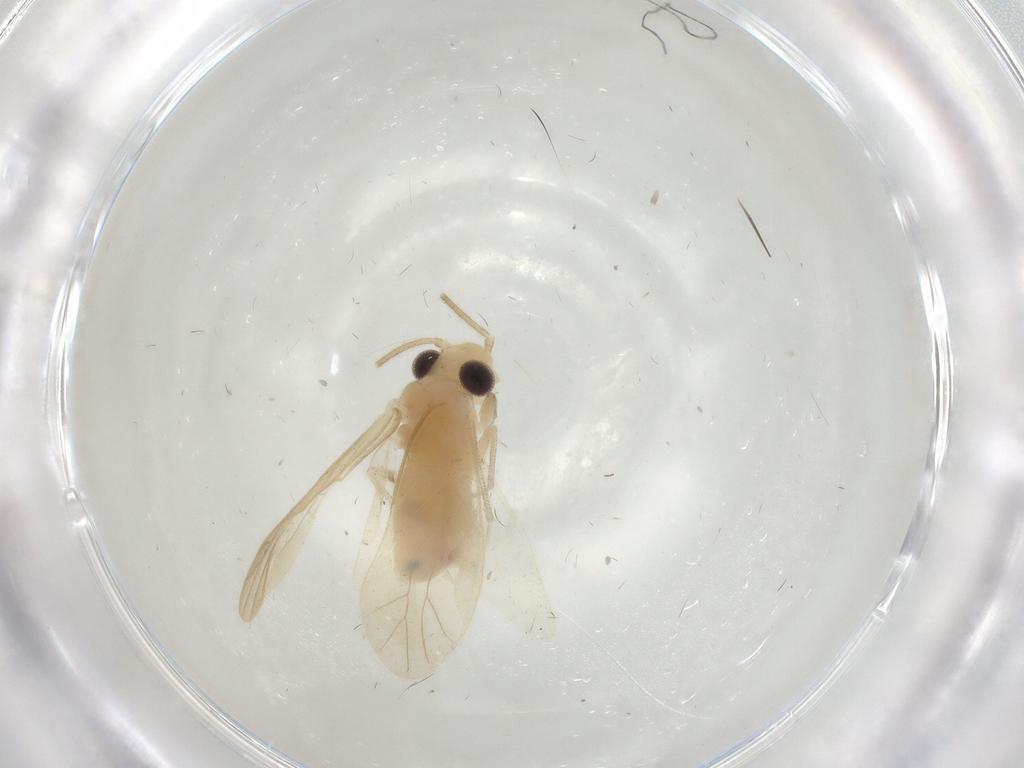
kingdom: Animalia
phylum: Arthropoda
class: Insecta
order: Psocodea
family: Caeciliusidae
